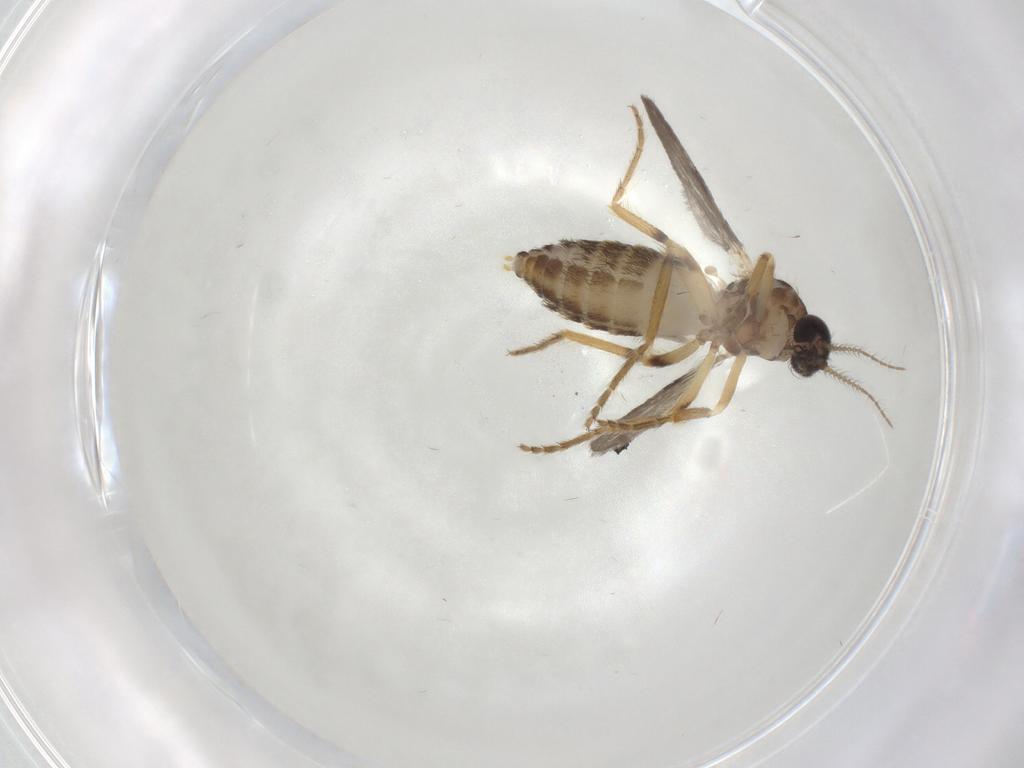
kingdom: Animalia
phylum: Arthropoda
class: Insecta
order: Diptera
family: Ceratopogonidae
